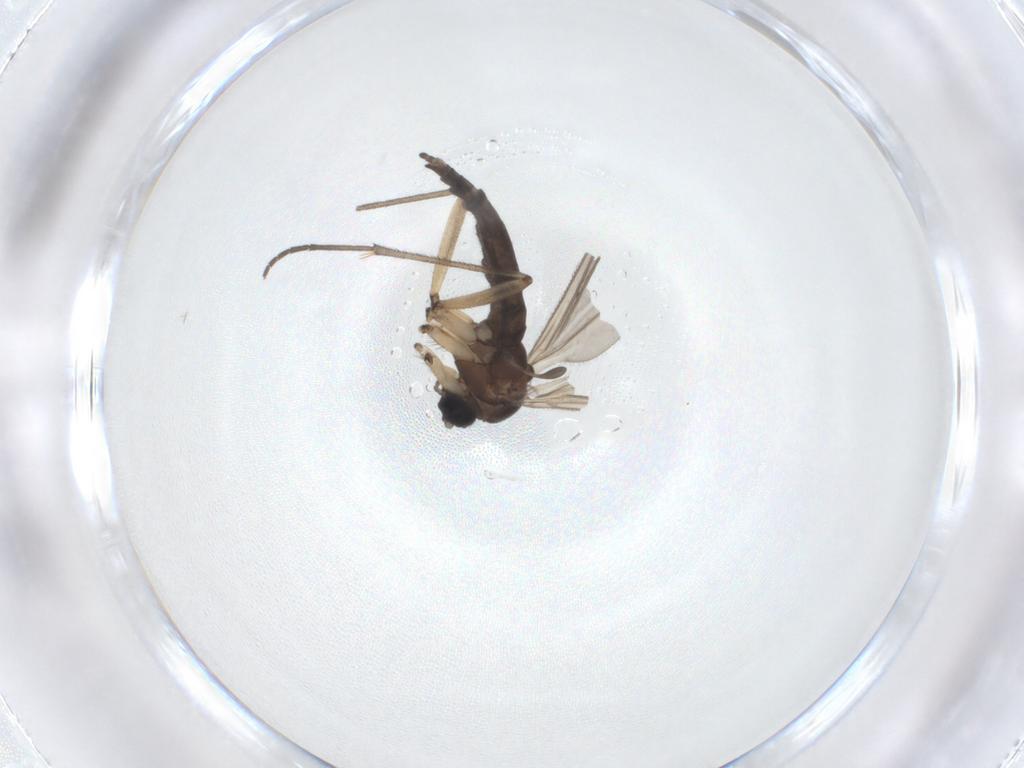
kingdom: Animalia
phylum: Arthropoda
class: Insecta
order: Diptera
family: Sciaridae
